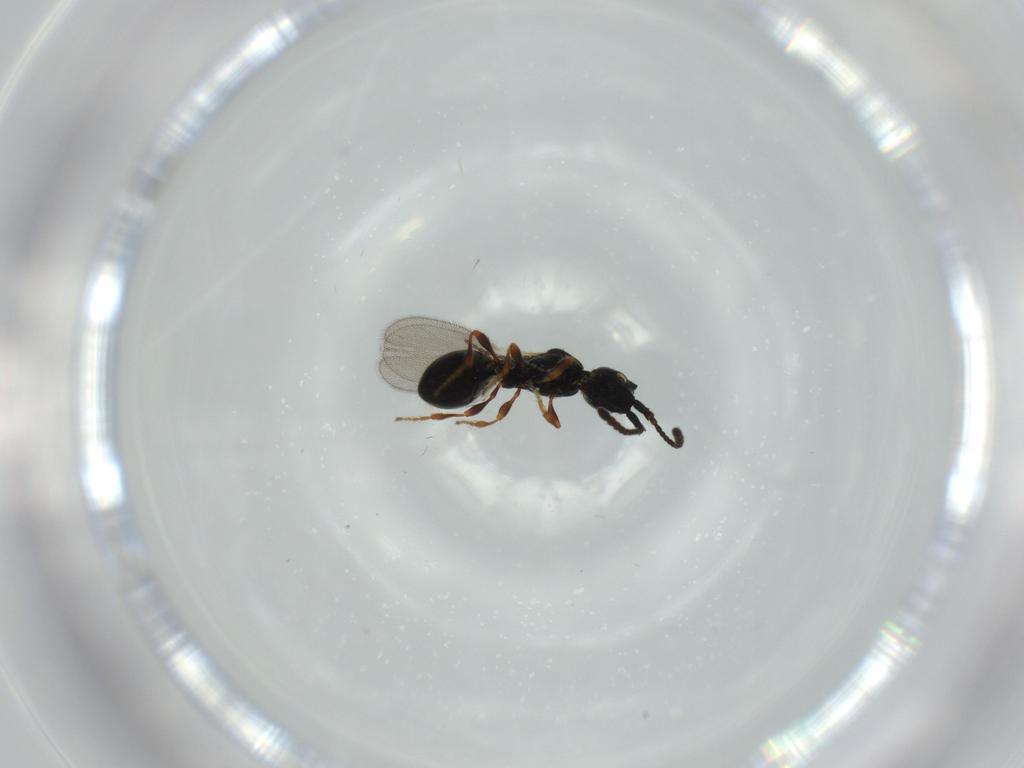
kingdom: Animalia
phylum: Arthropoda
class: Insecta
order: Hymenoptera
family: Diapriidae
